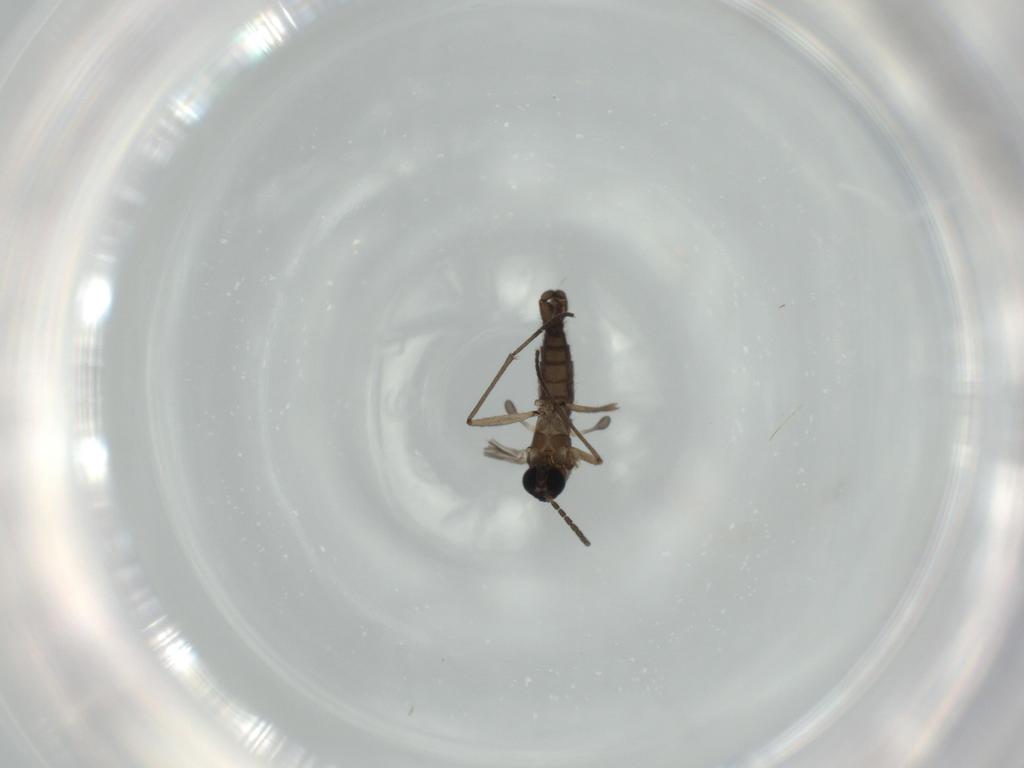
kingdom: Animalia
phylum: Arthropoda
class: Insecta
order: Diptera
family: Sciaridae
